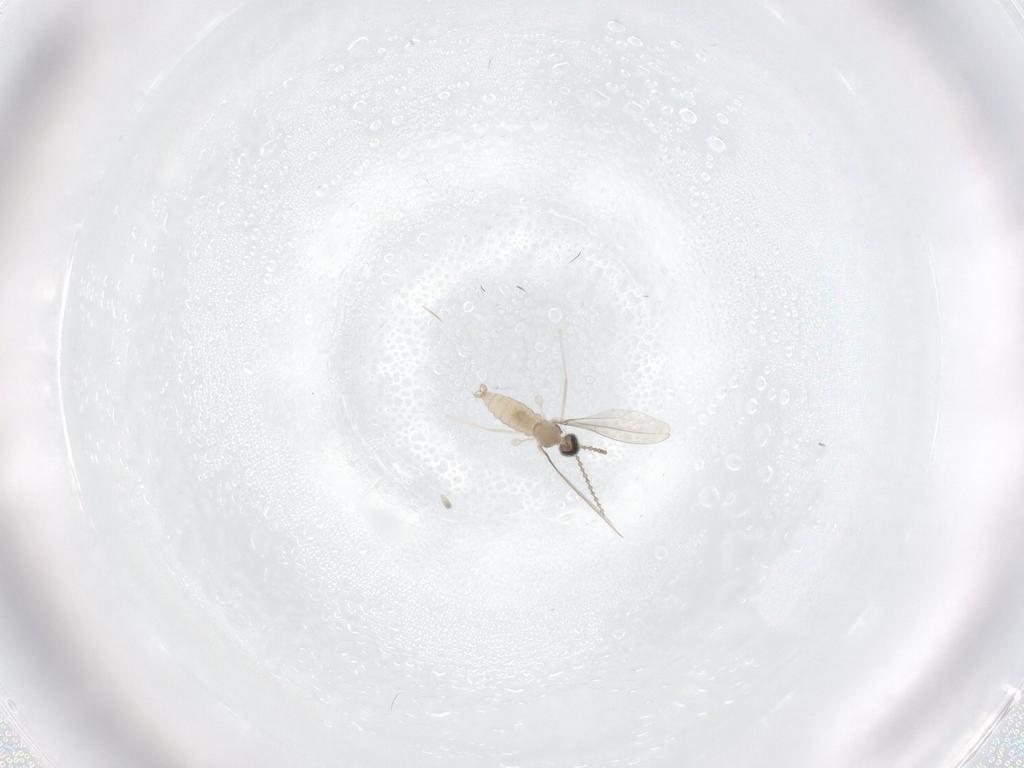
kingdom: Animalia
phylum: Arthropoda
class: Insecta
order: Diptera
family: Cecidomyiidae
